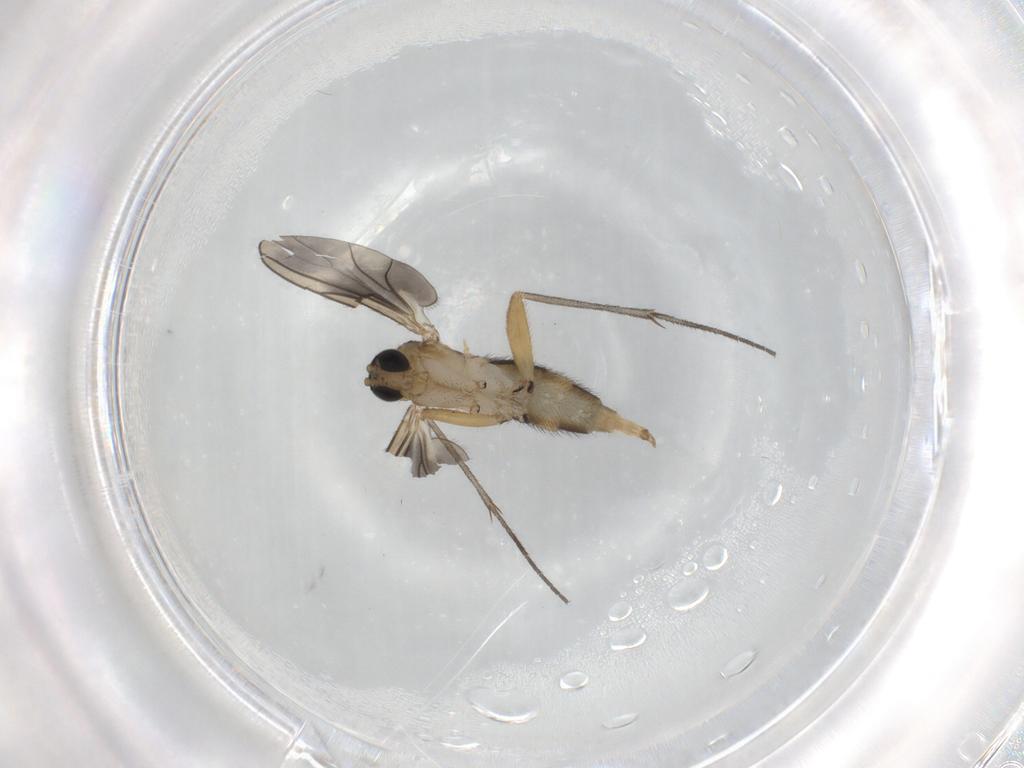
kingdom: Animalia
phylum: Arthropoda
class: Insecta
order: Diptera
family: Sciaridae
